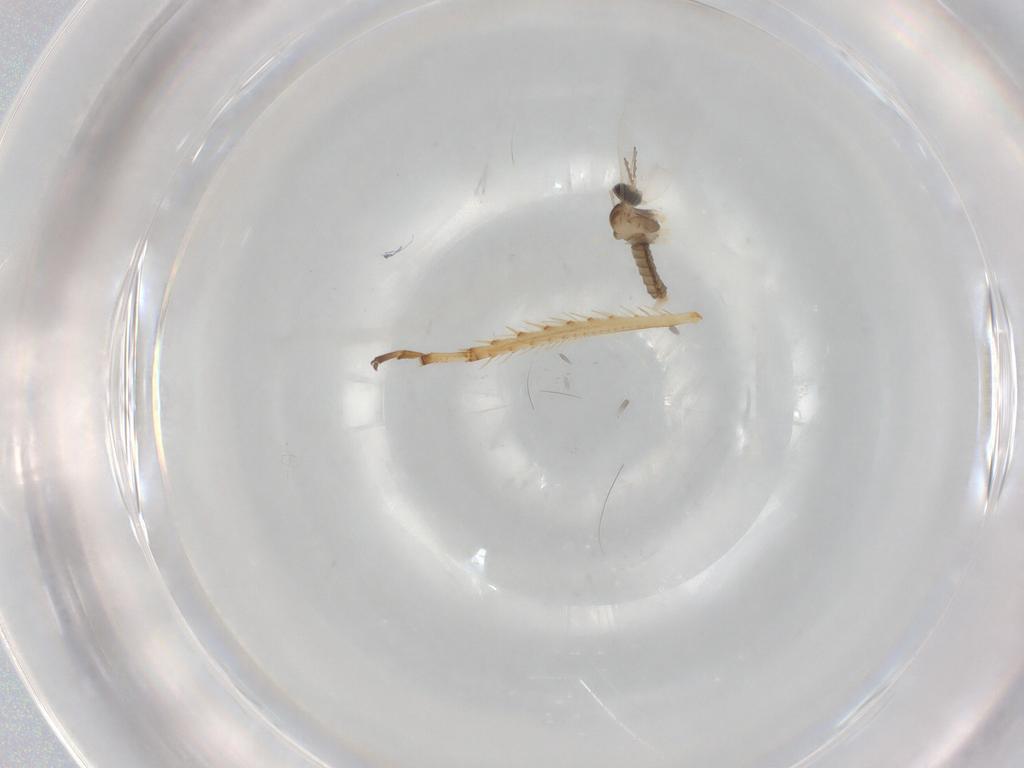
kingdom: Animalia
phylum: Arthropoda
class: Insecta
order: Diptera
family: Cecidomyiidae
